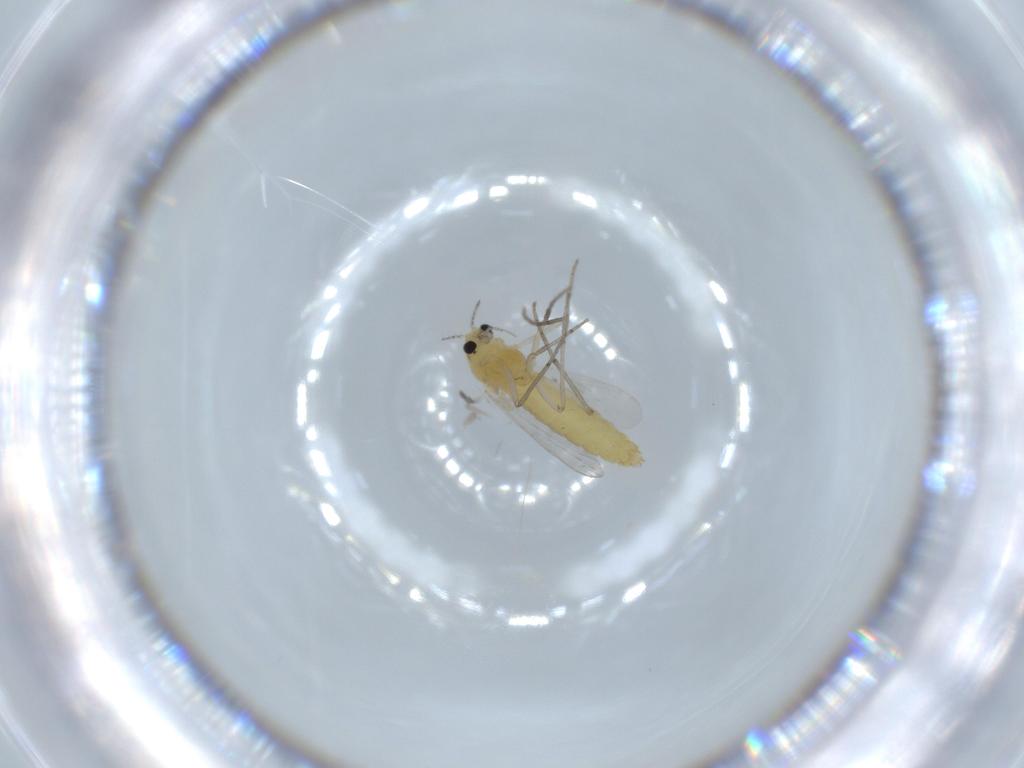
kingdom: Animalia
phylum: Arthropoda
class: Insecta
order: Diptera
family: Chironomidae
